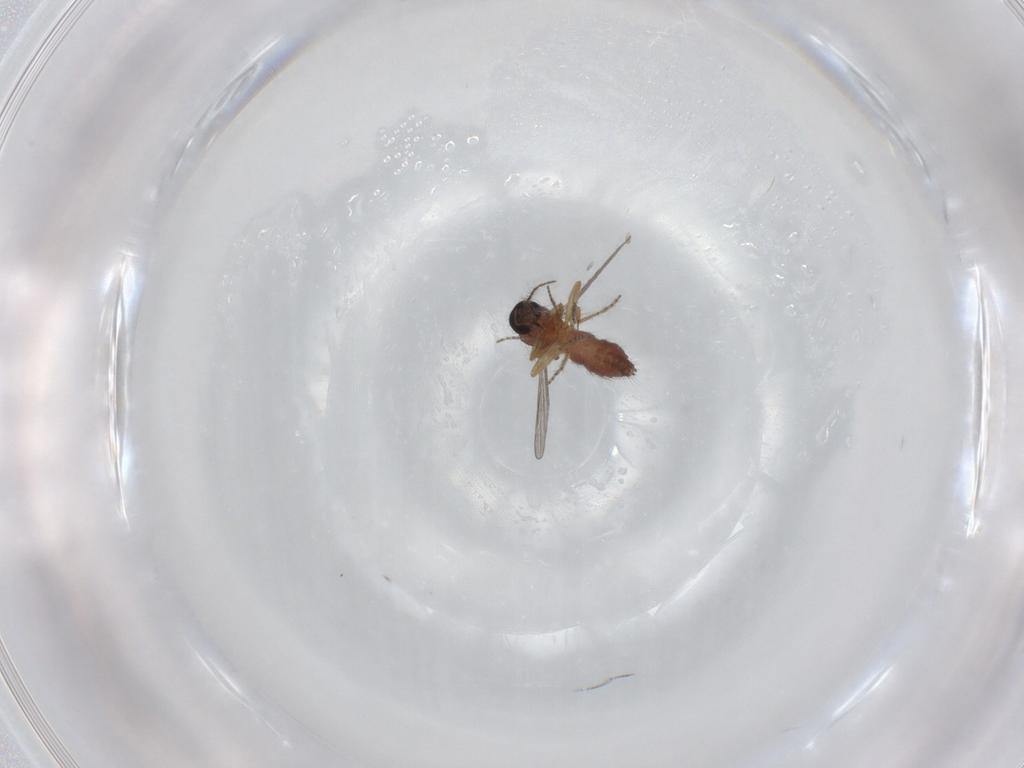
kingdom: Animalia
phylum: Arthropoda
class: Insecta
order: Diptera
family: Ceratopogonidae
